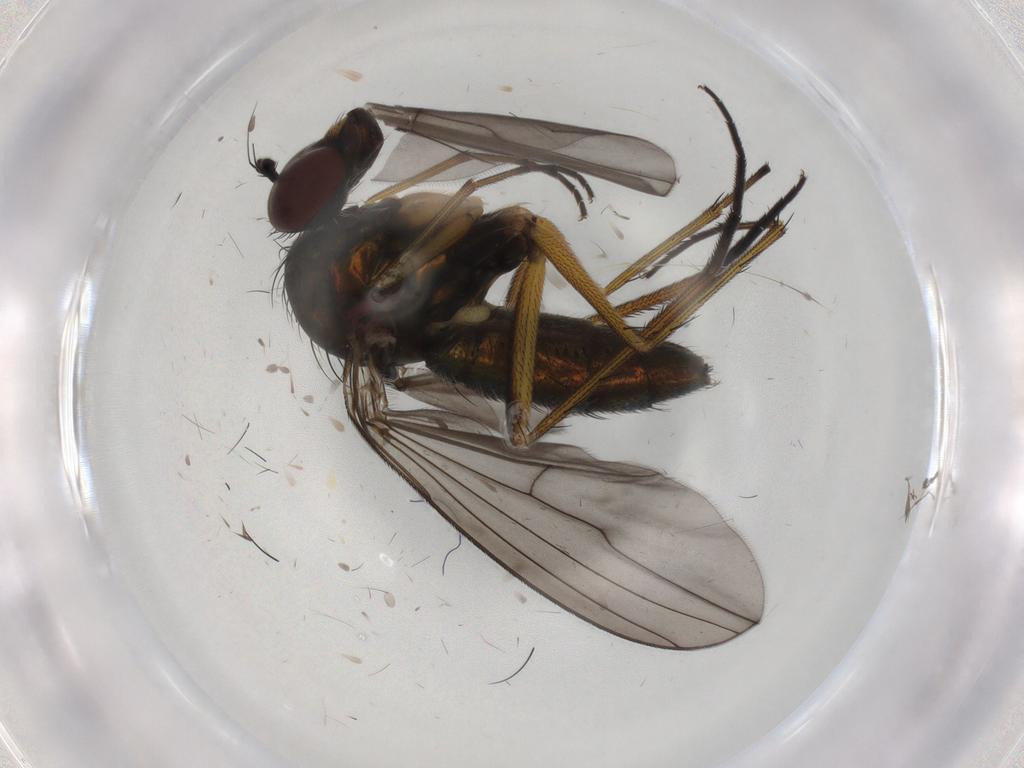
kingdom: Animalia
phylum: Arthropoda
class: Insecta
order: Diptera
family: Dolichopodidae
